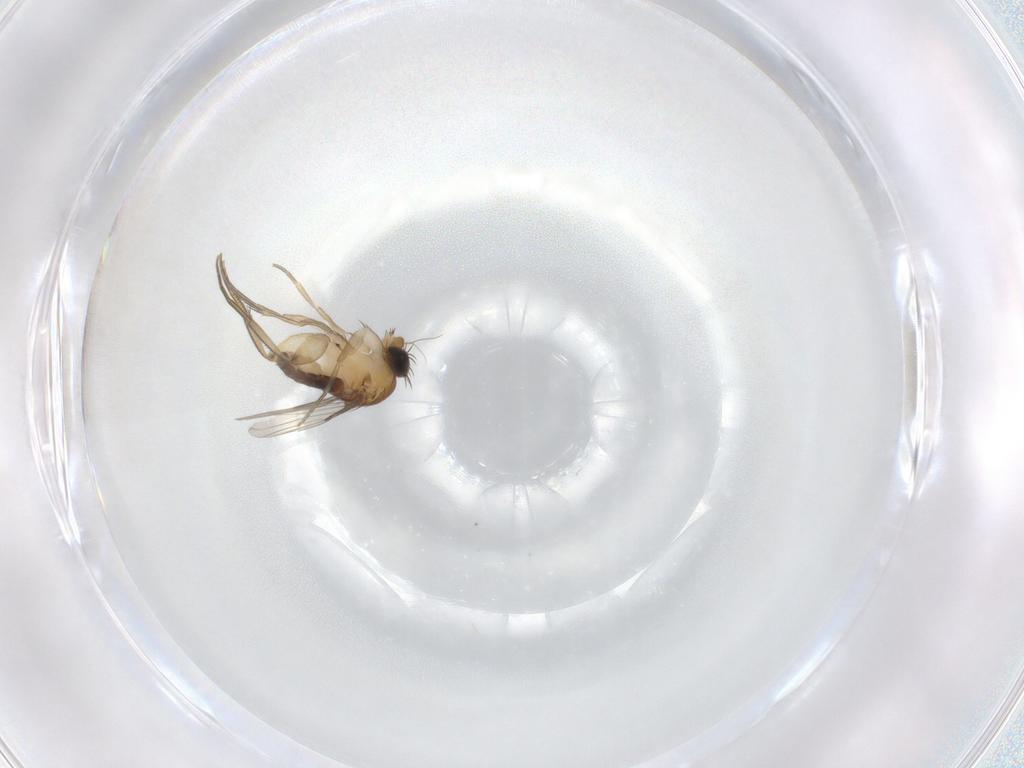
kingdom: Animalia
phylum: Arthropoda
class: Insecta
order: Diptera
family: Phoridae
